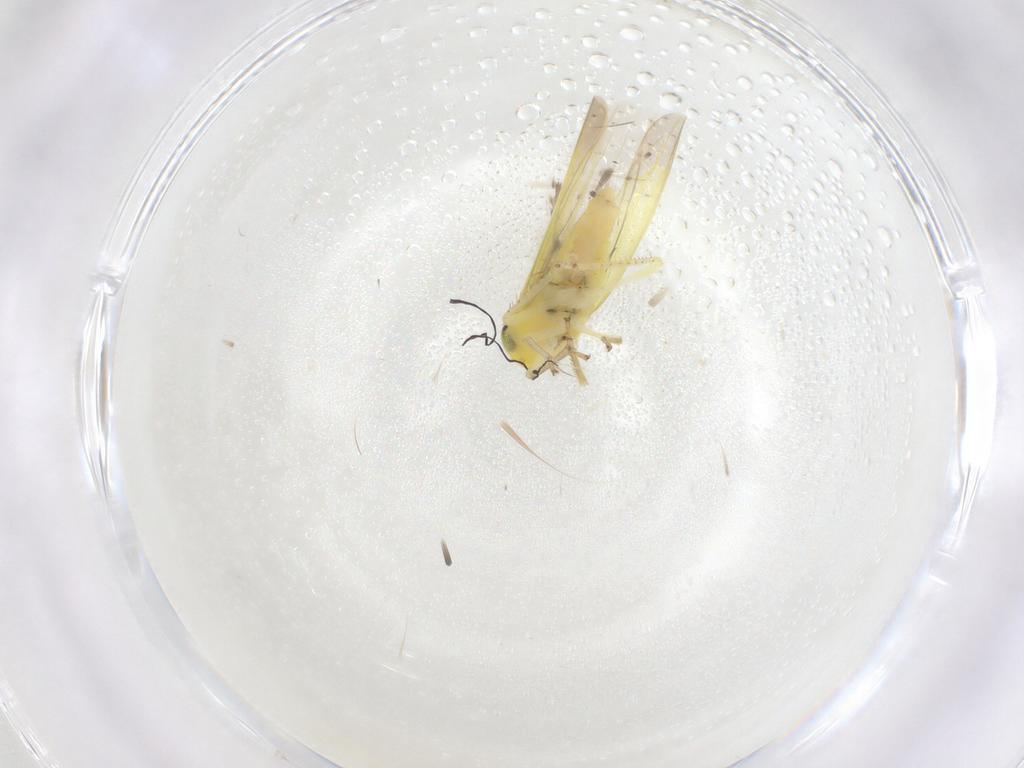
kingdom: Animalia
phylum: Arthropoda
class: Insecta
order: Hemiptera
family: Cicadellidae
